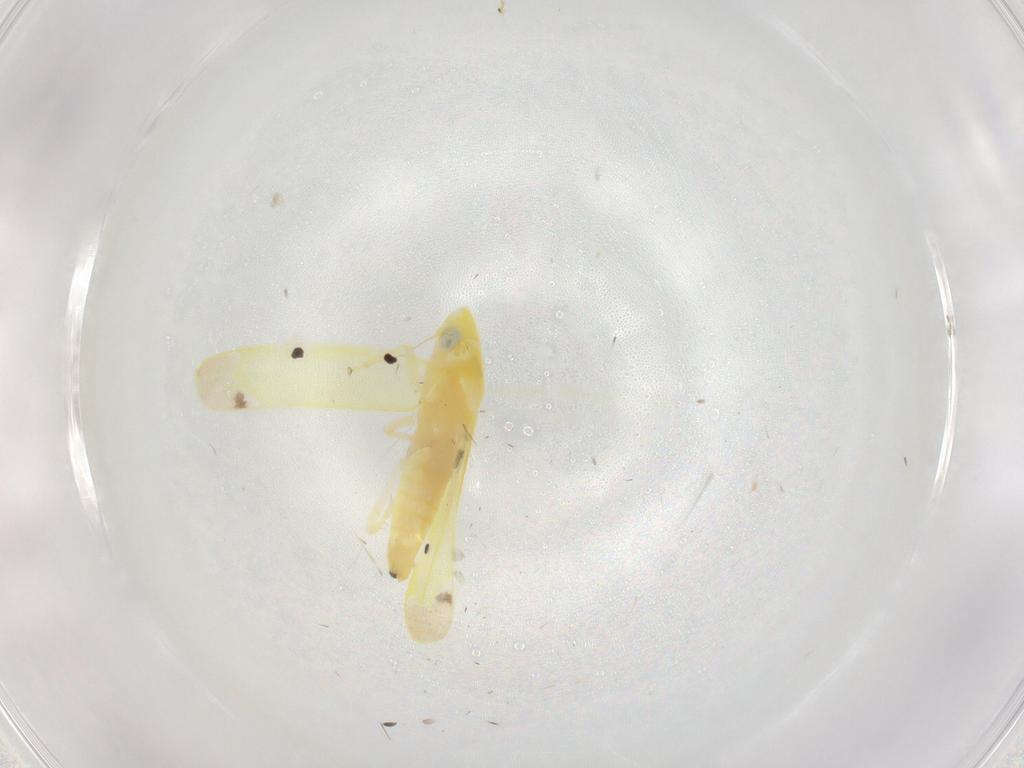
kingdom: Animalia
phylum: Arthropoda
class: Insecta
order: Hemiptera
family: Cicadellidae
